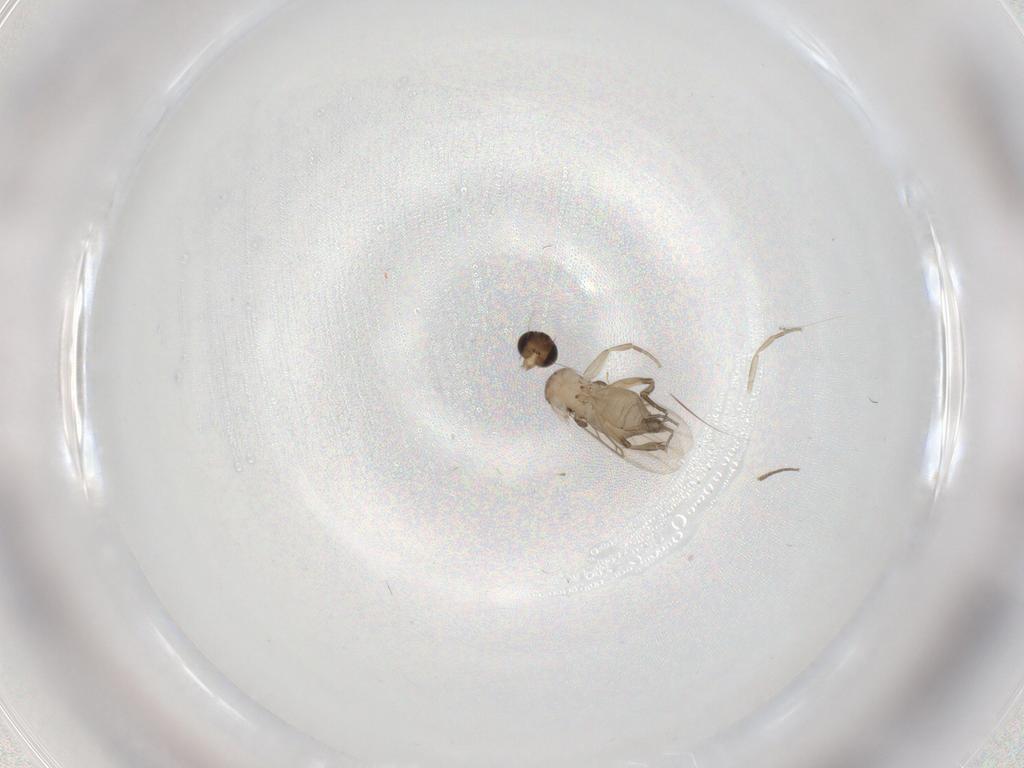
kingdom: Animalia
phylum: Arthropoda
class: Insecta
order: Diptera
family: Phoridae
